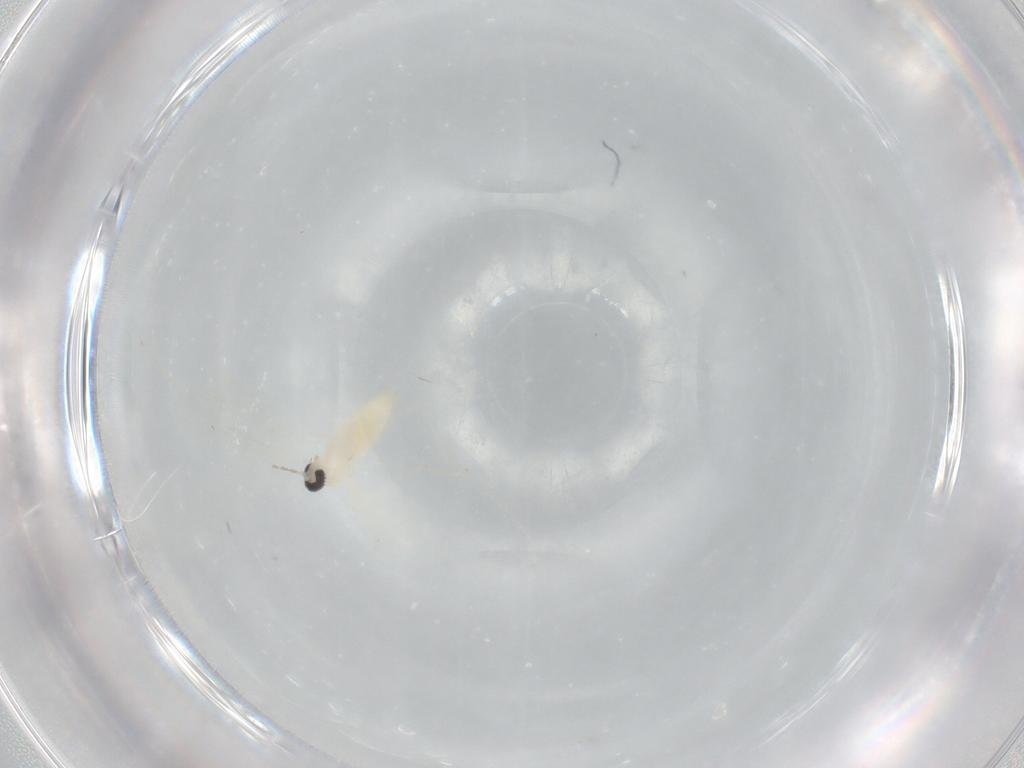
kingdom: Animalia
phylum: Arthropoda
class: Insecta
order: Diptera
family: Cecidomyiidae
